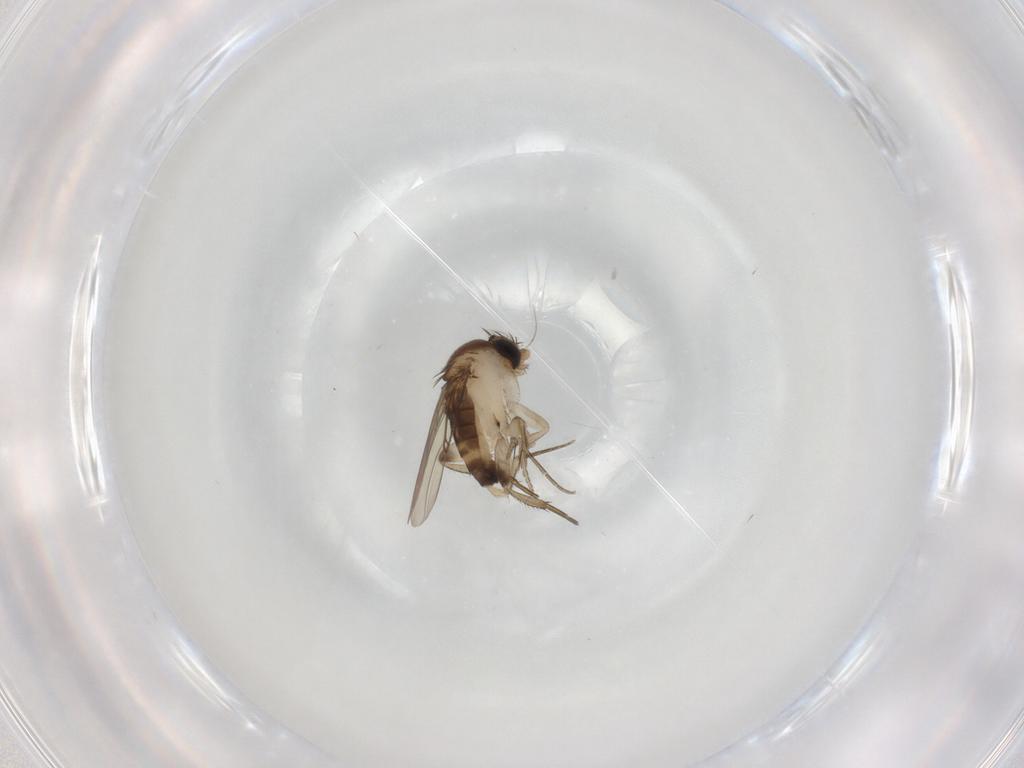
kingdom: Animalia
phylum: Arthropoda
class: Insecta
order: Diptera
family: Phoridae
